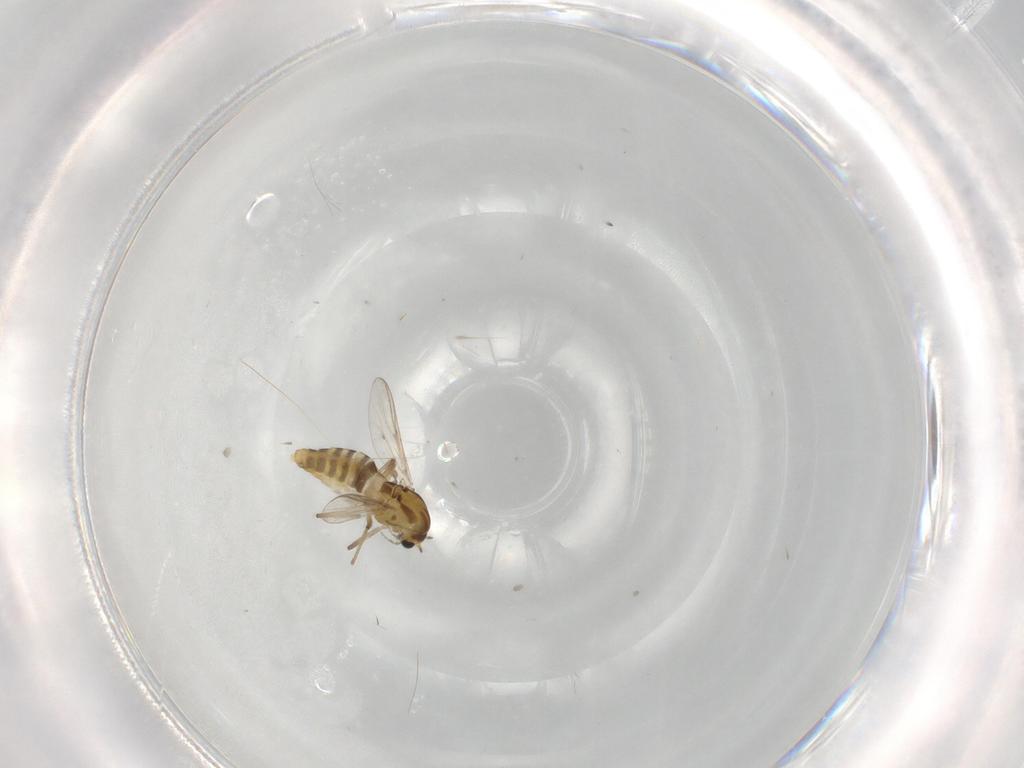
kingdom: Animalia
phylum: Arthropoda
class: Insecta
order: Diptera
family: Chironomidae
